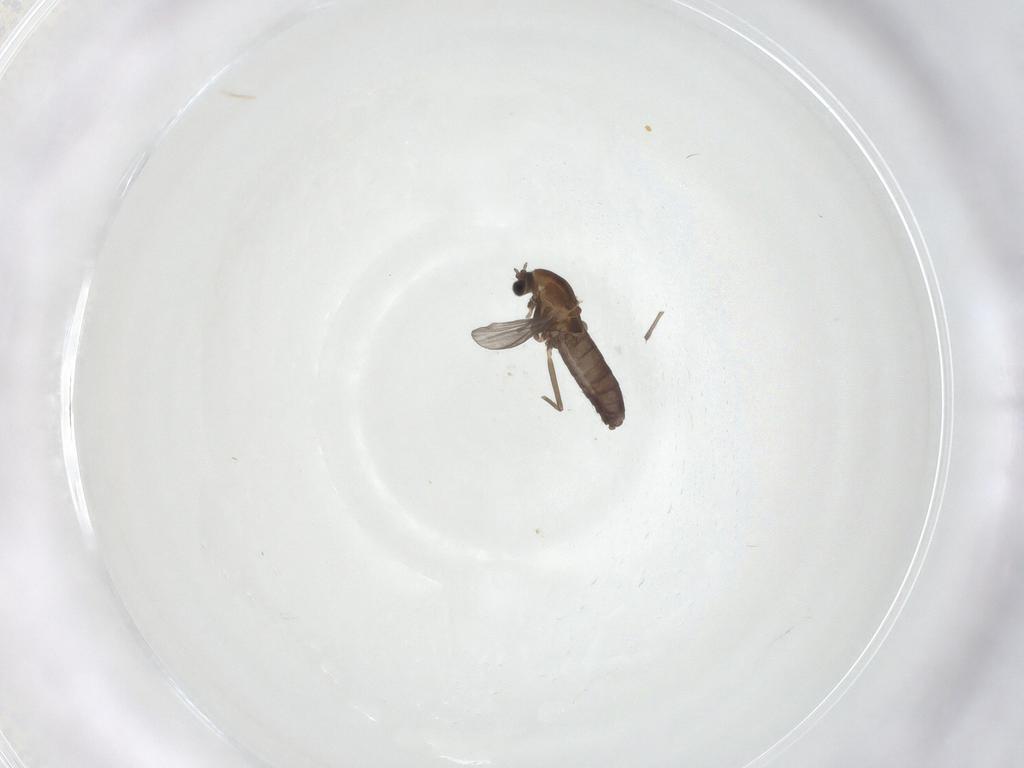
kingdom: Animalia
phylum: Arthropoda
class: Insecta
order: Diptera
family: Chironomidae
